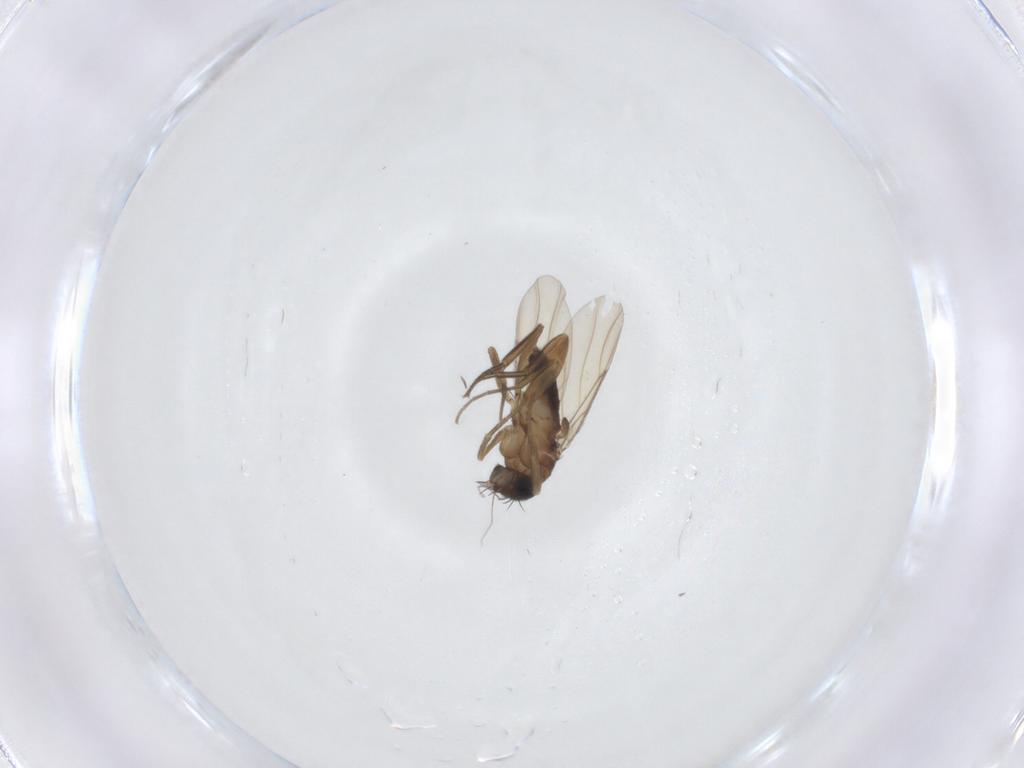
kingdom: Animalia
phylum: Arthropoda
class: Insecta
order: Diptera
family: Phoridae
